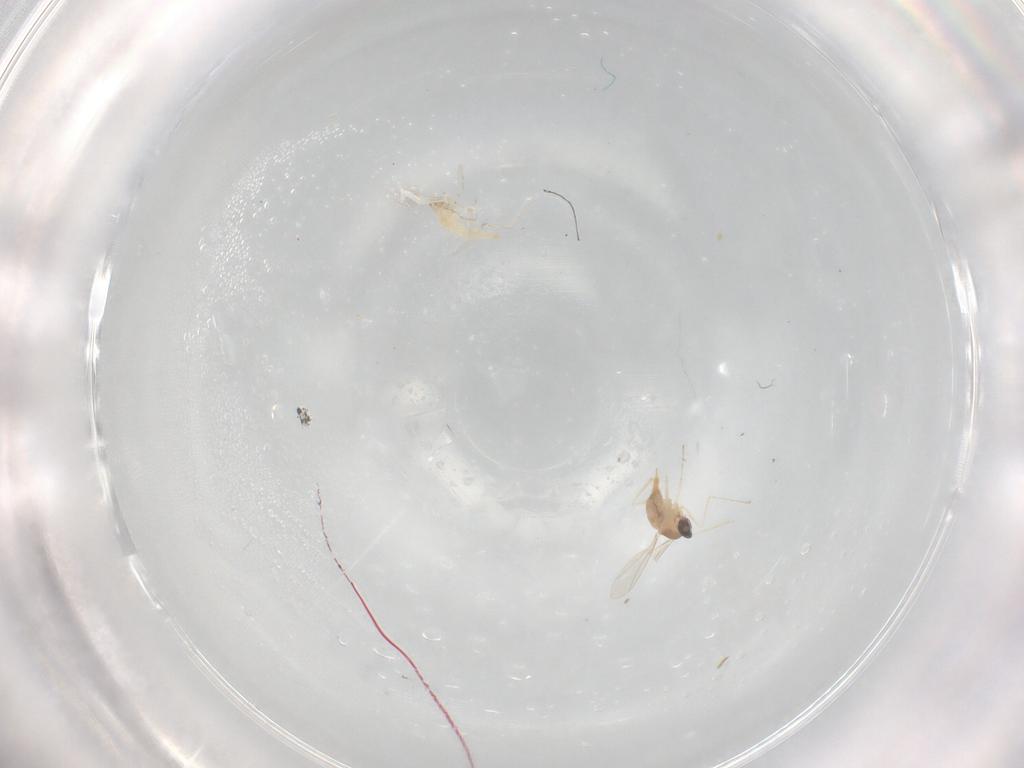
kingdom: Animalia
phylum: Arthropoda
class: Insecta
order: Diptera
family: Cecidomyiidae
